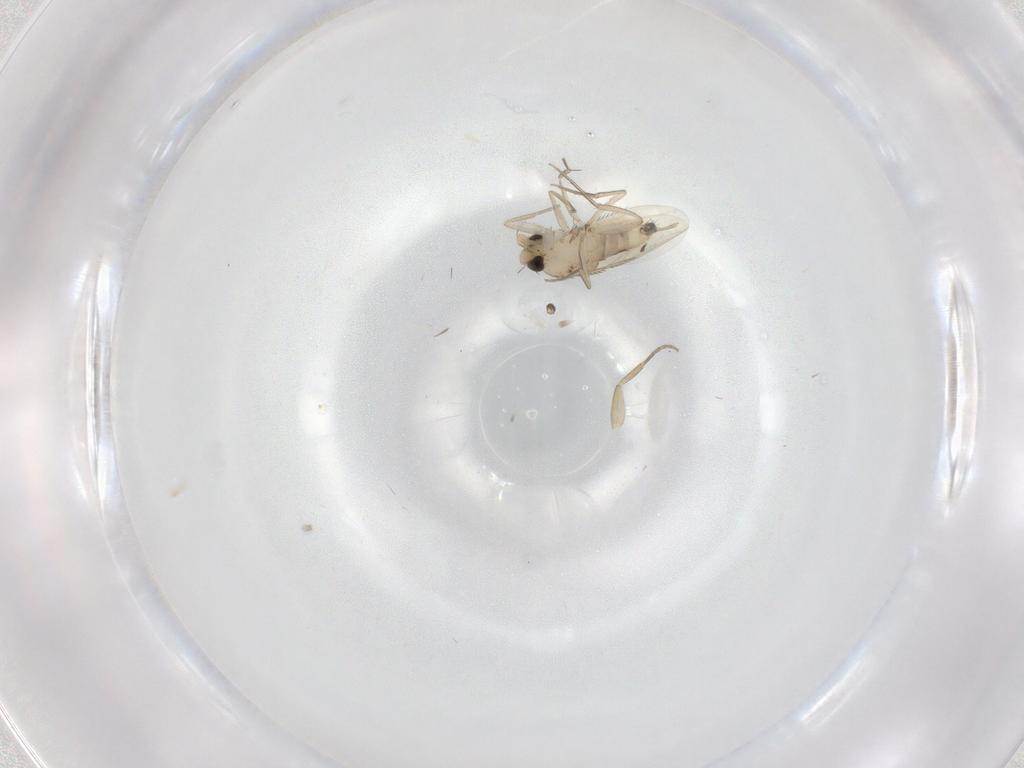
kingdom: Animalia
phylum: Arthropoda
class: Insecta
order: Diptera
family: Phoridae
